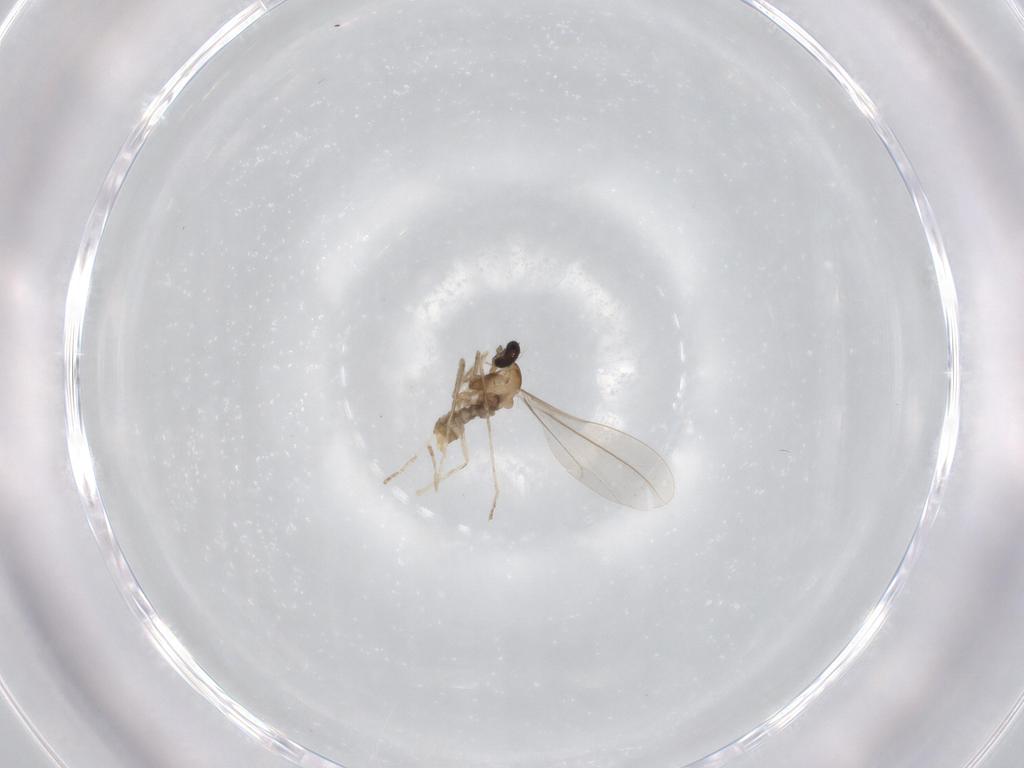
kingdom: Animalia
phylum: Arthropoda
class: Insecta
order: Diptera
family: Cecidomyiidae
